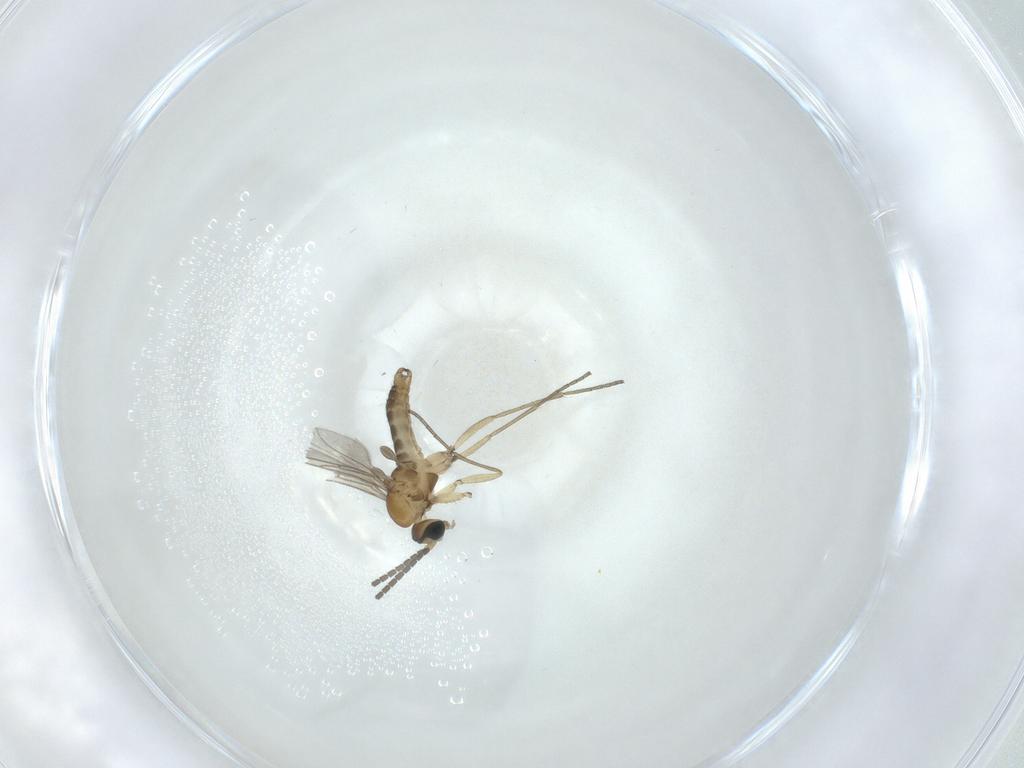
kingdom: Animalia
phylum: Arthropoda
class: Insecta
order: Diptera
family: Sciaridae
